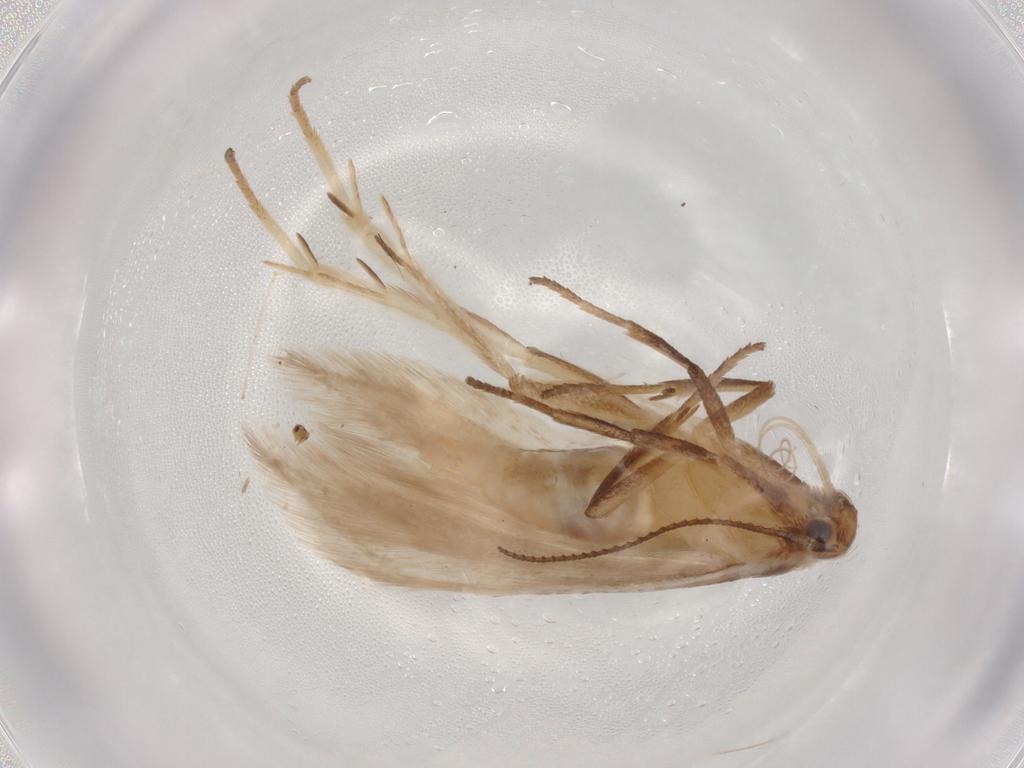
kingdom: Animalia
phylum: Arthropoda
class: Insecta
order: Lepidoptera
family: Gelechiidae
